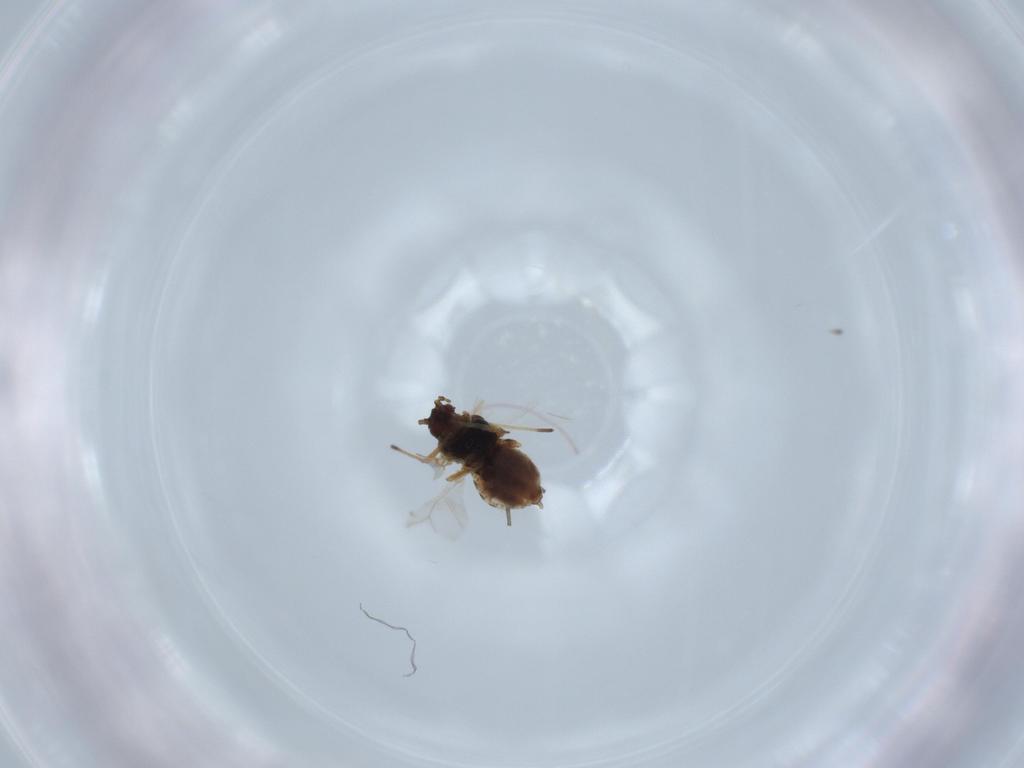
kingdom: Animalia
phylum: Arthropoda
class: Insecta
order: Hemiptera
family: Aphididae
